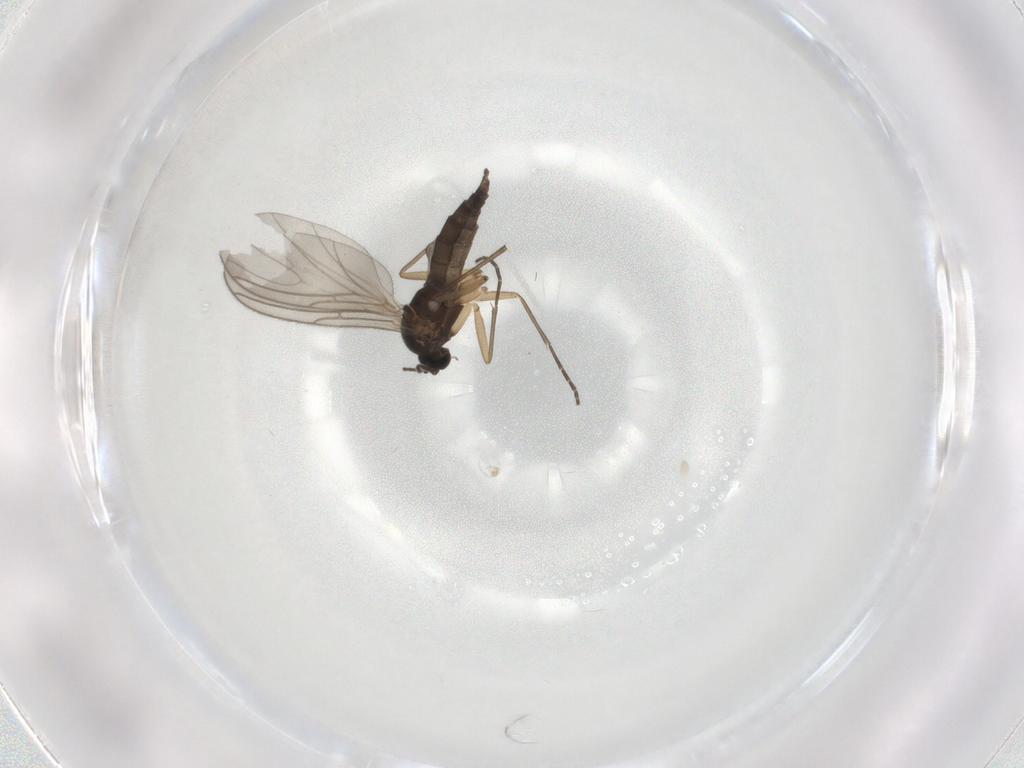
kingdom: Animalia
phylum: Arthropoda
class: Insecta
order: Diptera
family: Sciaridae
